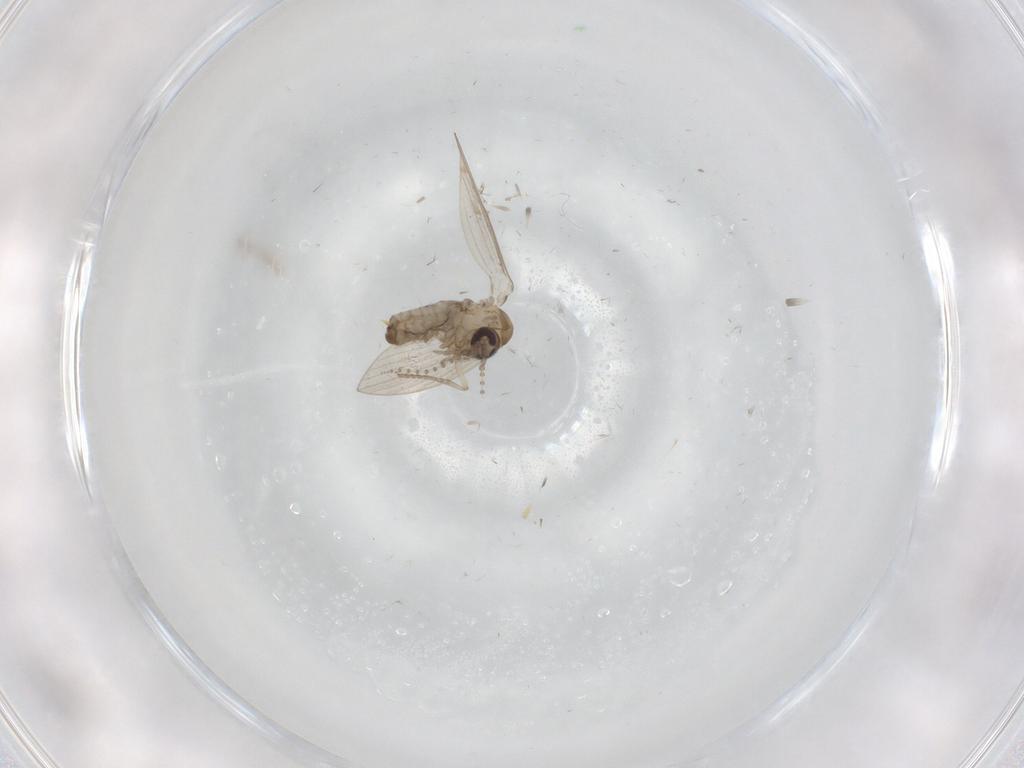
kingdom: Animalia
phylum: Arthropoda
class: Insecta
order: Diptera
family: Psychodidae
